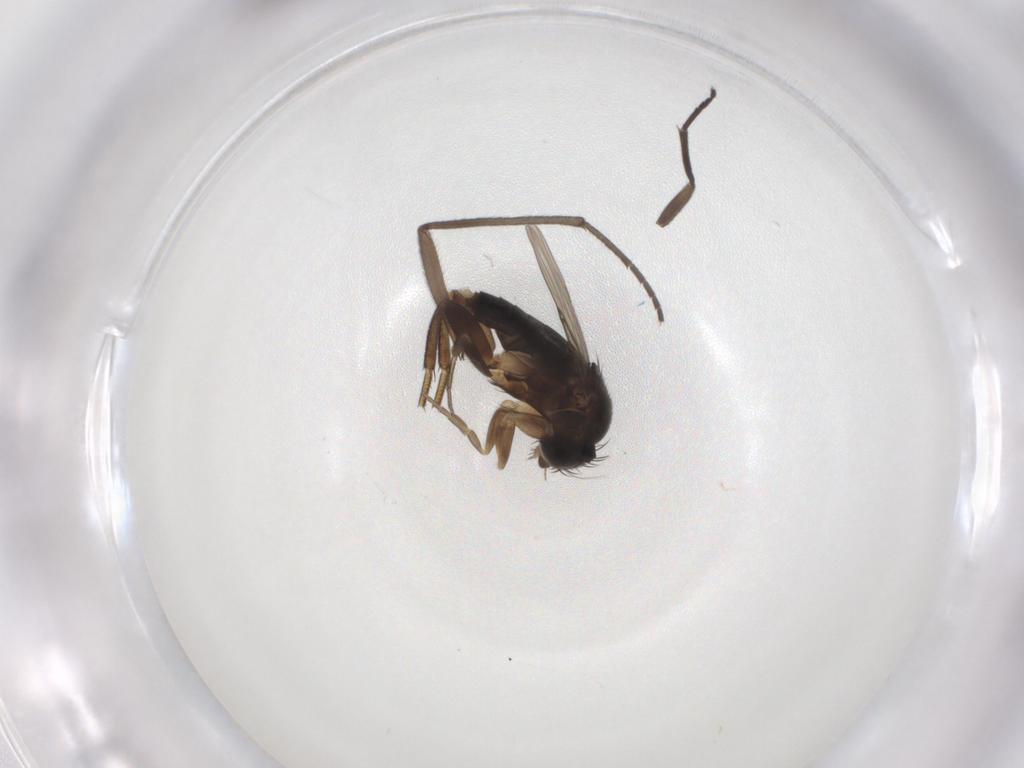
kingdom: Animalia
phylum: Arthropoda
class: Insecta
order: Diptera
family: Phoridae
